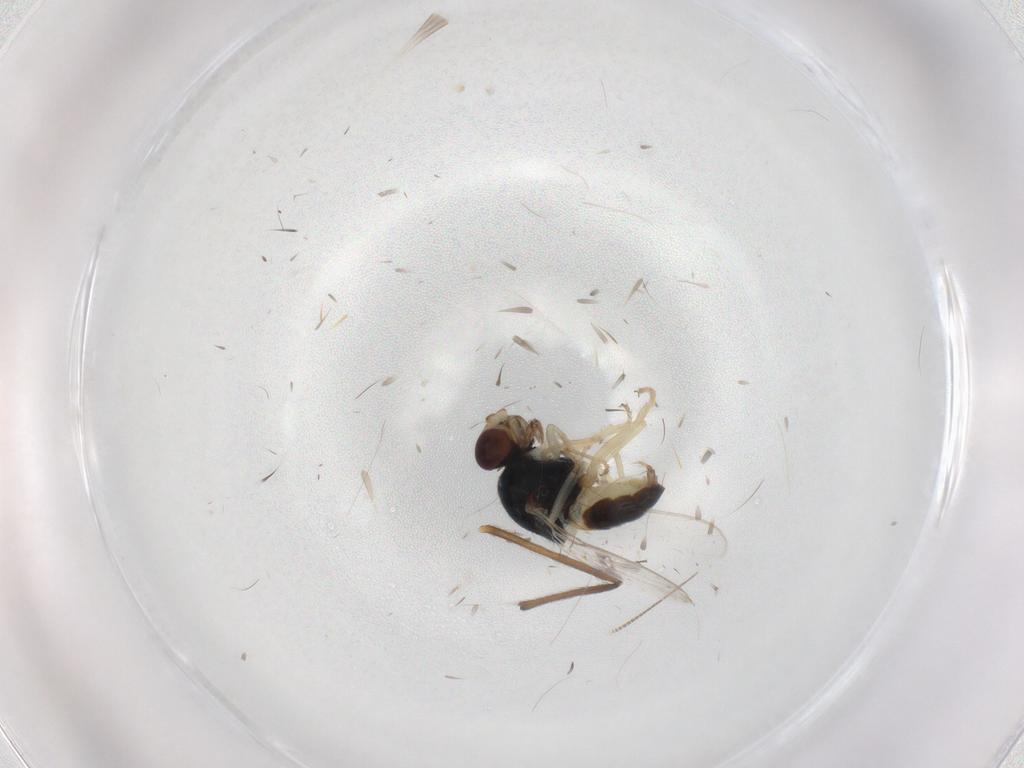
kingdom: Animalia
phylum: Arthropoda
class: Insecta
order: Diptera
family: Chloropidae
